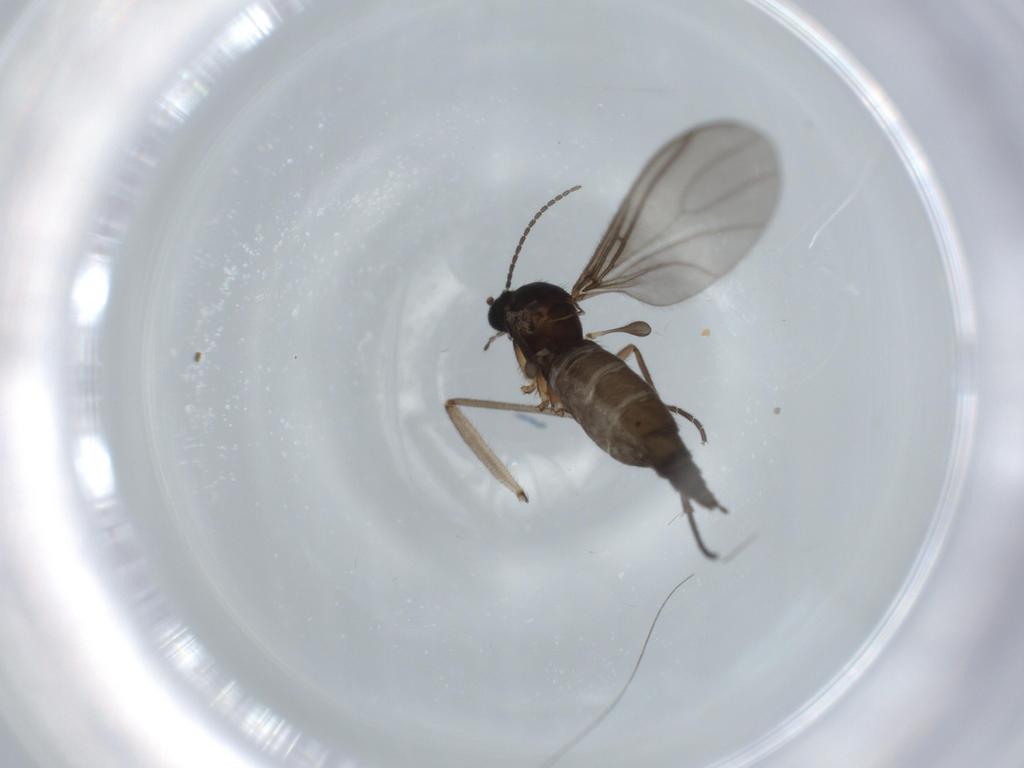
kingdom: Animalia
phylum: Arthropoda
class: Insecta
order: Diptera
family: Sciaridae
